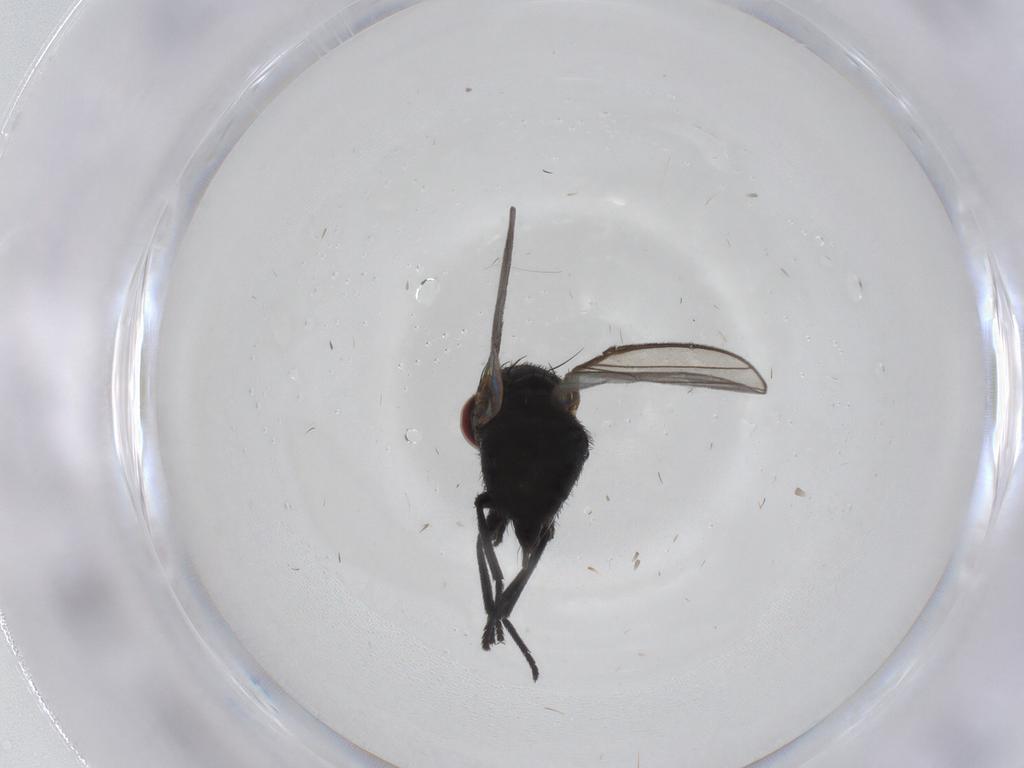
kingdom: Animalia
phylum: Arthropoda
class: Insecta
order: Diptera
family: Agromyzidae
